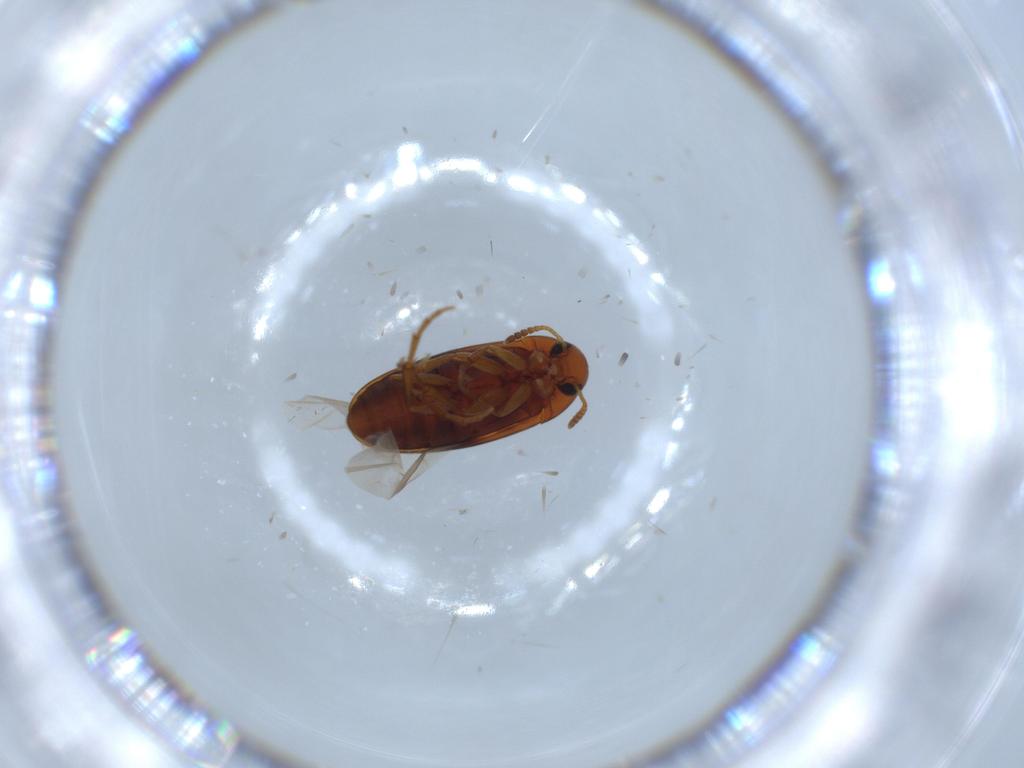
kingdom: Animalia
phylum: Arthropoda
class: Insecta
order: Coleoptera
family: Scraptiidae
